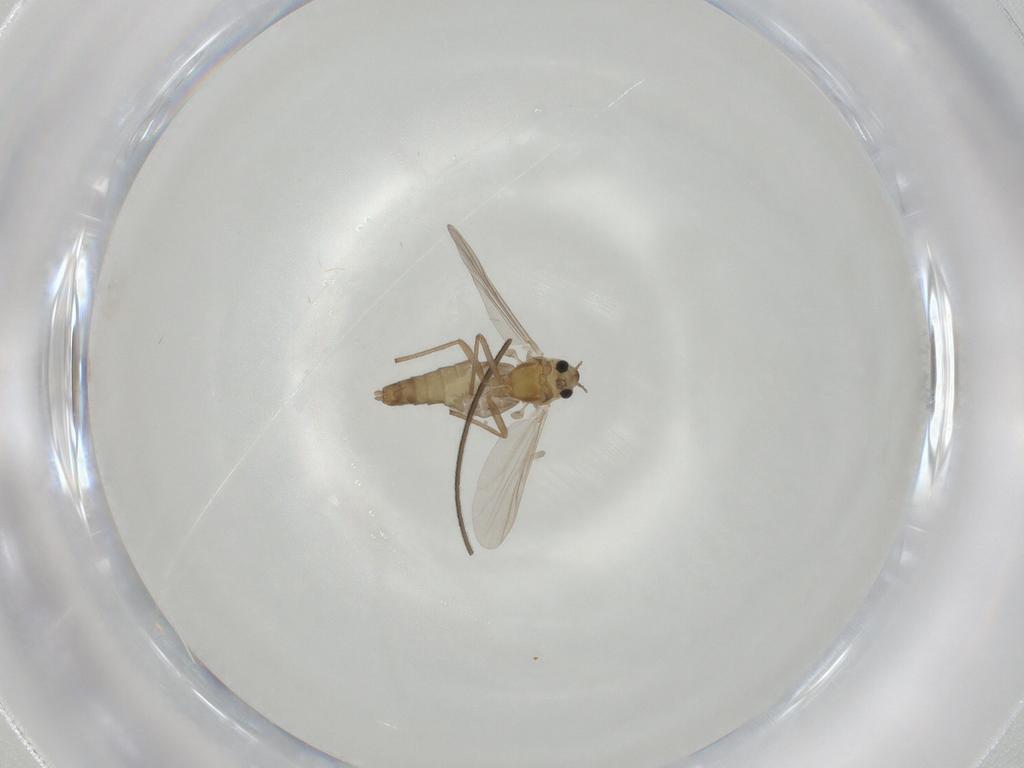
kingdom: Animalia
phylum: Arthropoda
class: Insecta
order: Diptera
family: Chironomidae
